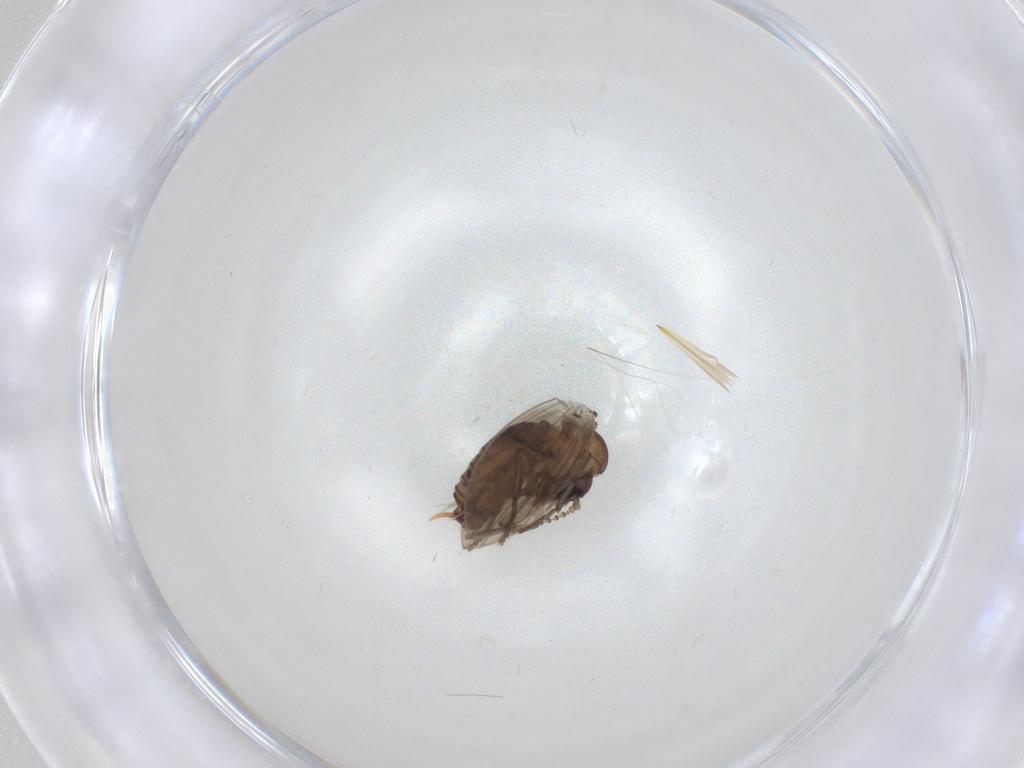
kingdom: Animalia
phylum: Arthropoda
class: Insecta
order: Diptera
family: Psychodidae
